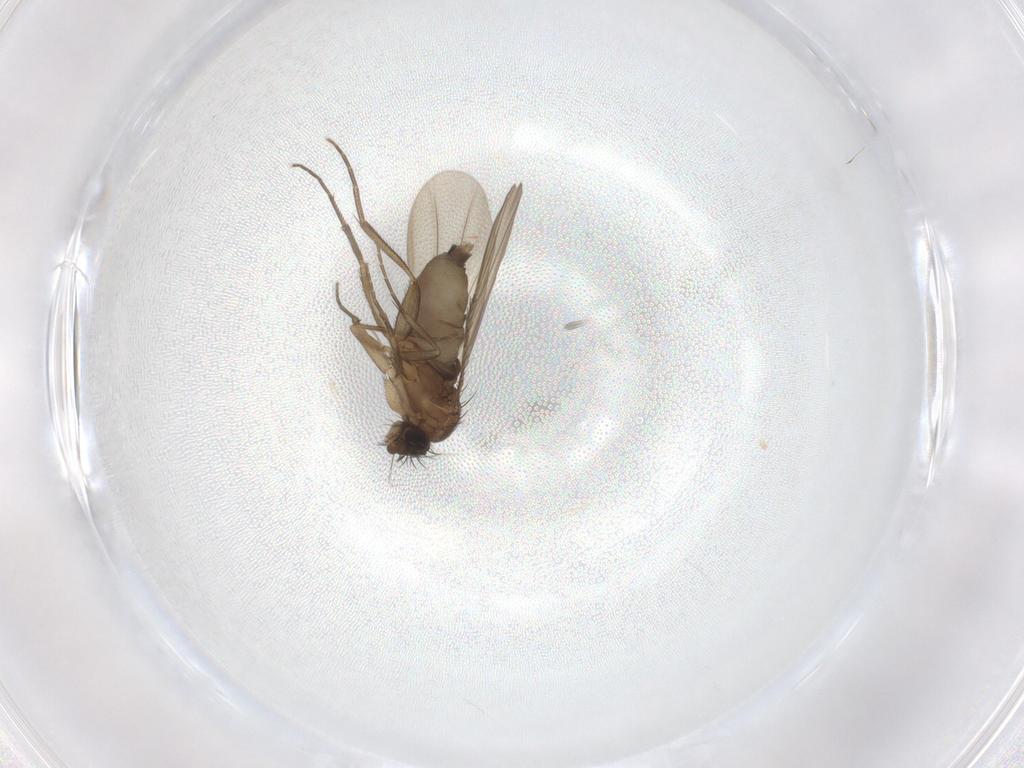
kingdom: Animalia
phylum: Arthropoda
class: Insecta
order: Diptera
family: Phoridae
